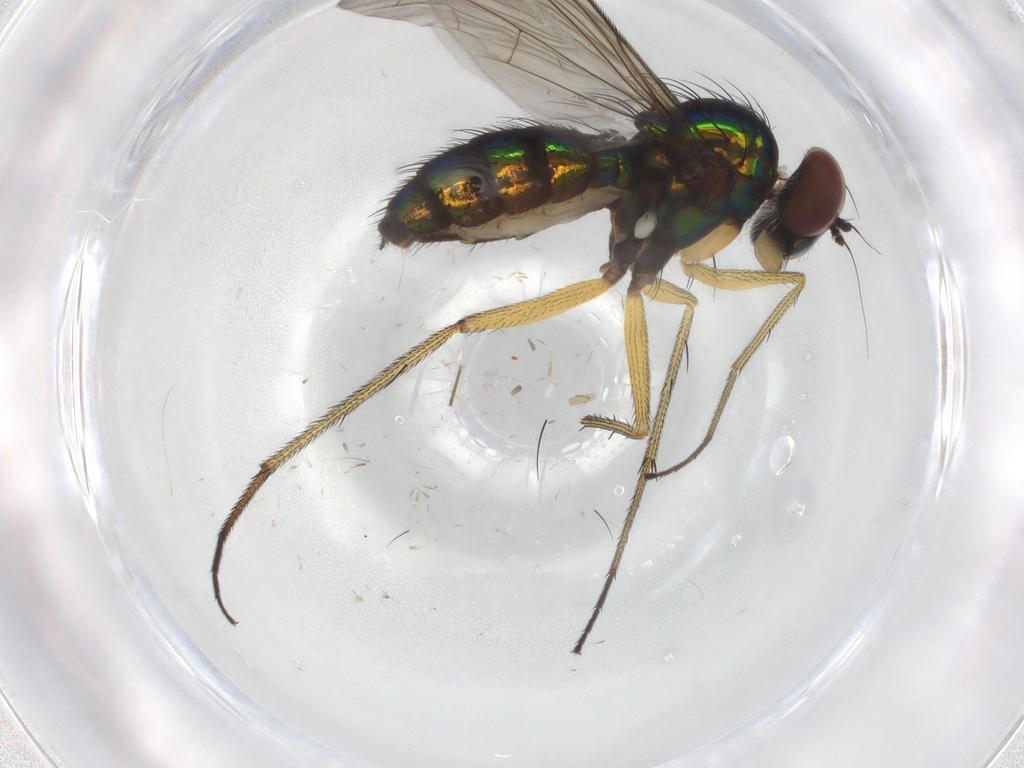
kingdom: Animalia
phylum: Arthropoda
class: Insecta
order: Diptera
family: Dolichopodidae
